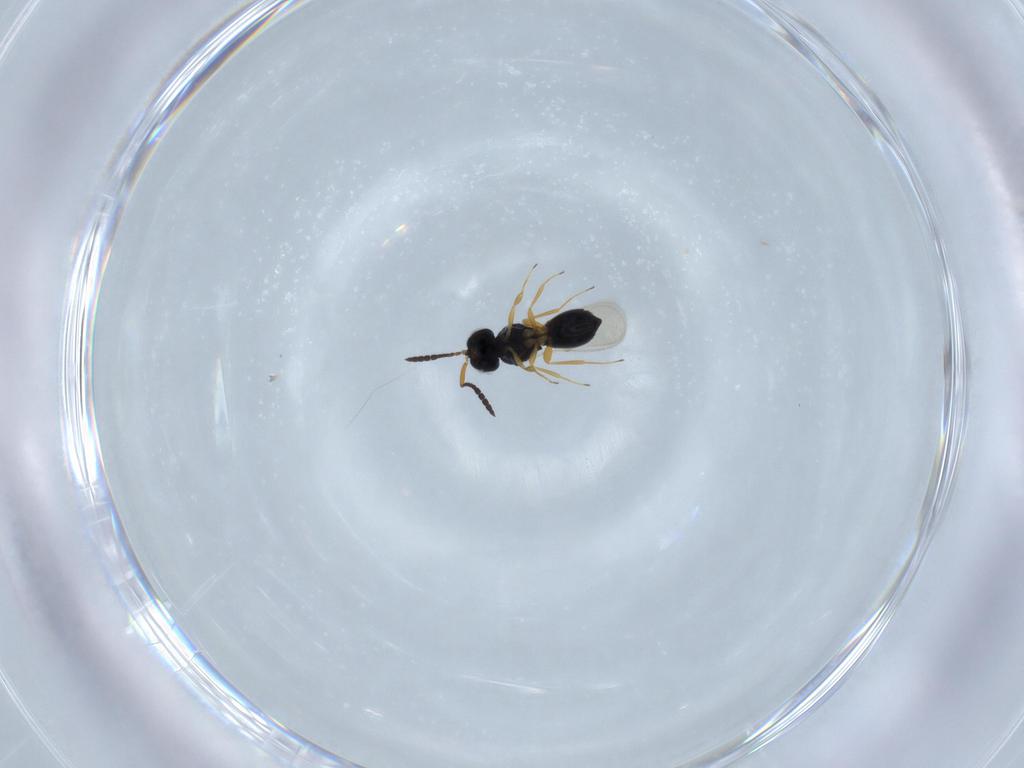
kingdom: Animalia
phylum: Arthropoda
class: Insecta
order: Hymenoptera
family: Scelionidae
